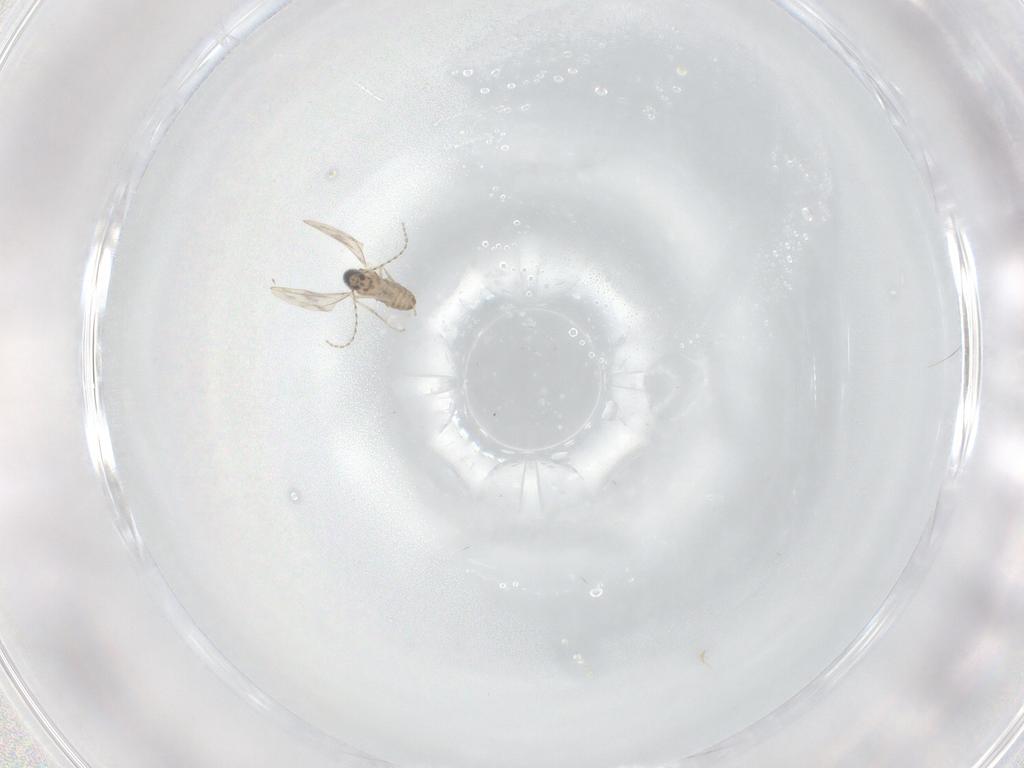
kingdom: Animalia
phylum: Arthropoda
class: Insecta
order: Diptera
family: Cecidomyiidae
